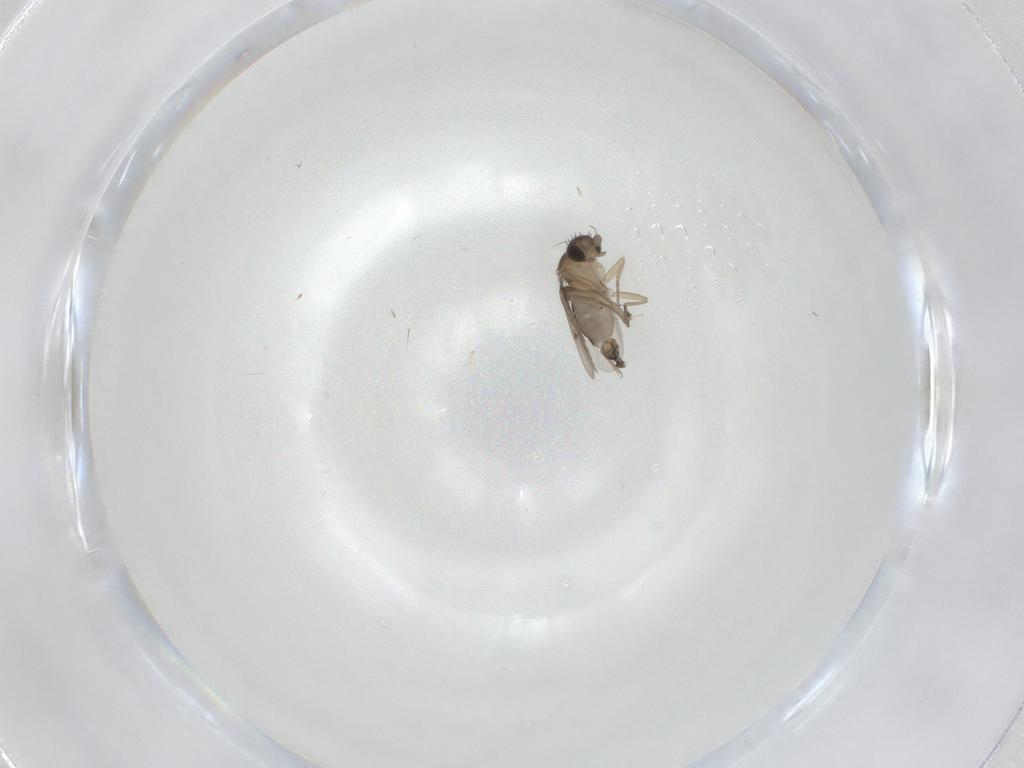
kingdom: Animalia
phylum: Arthropoda
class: Insecta
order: Diptera
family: Phoridae
